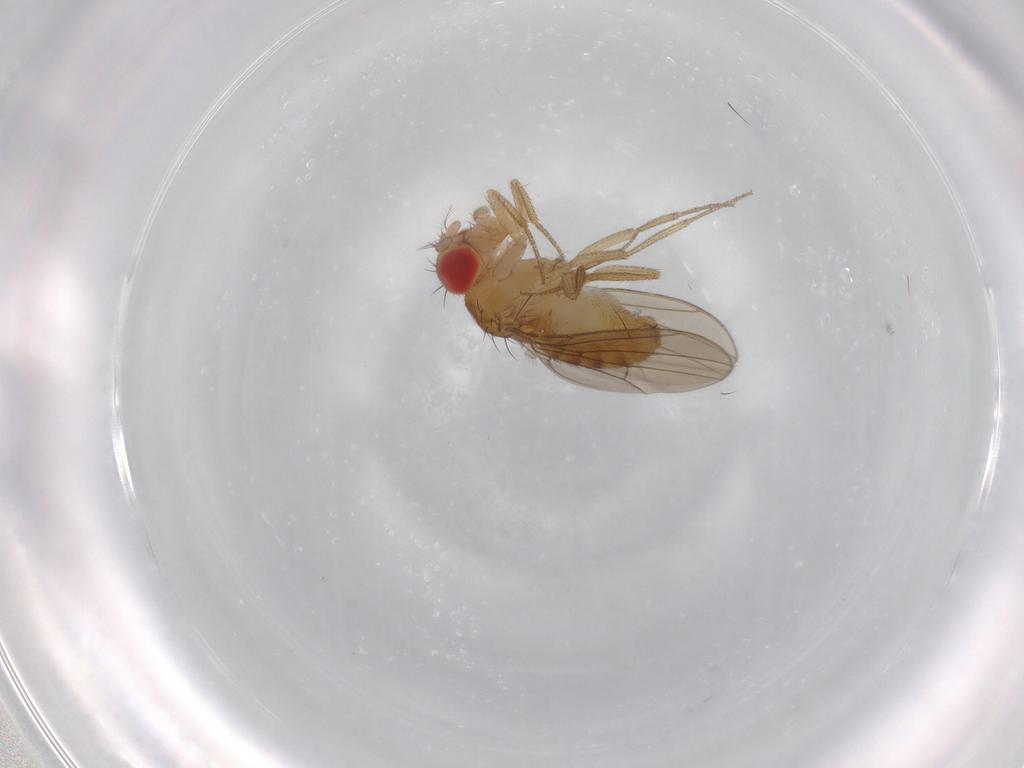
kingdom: Animalia
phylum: Arthropoda
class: Insecta
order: Diptera
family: Drosophilidae
